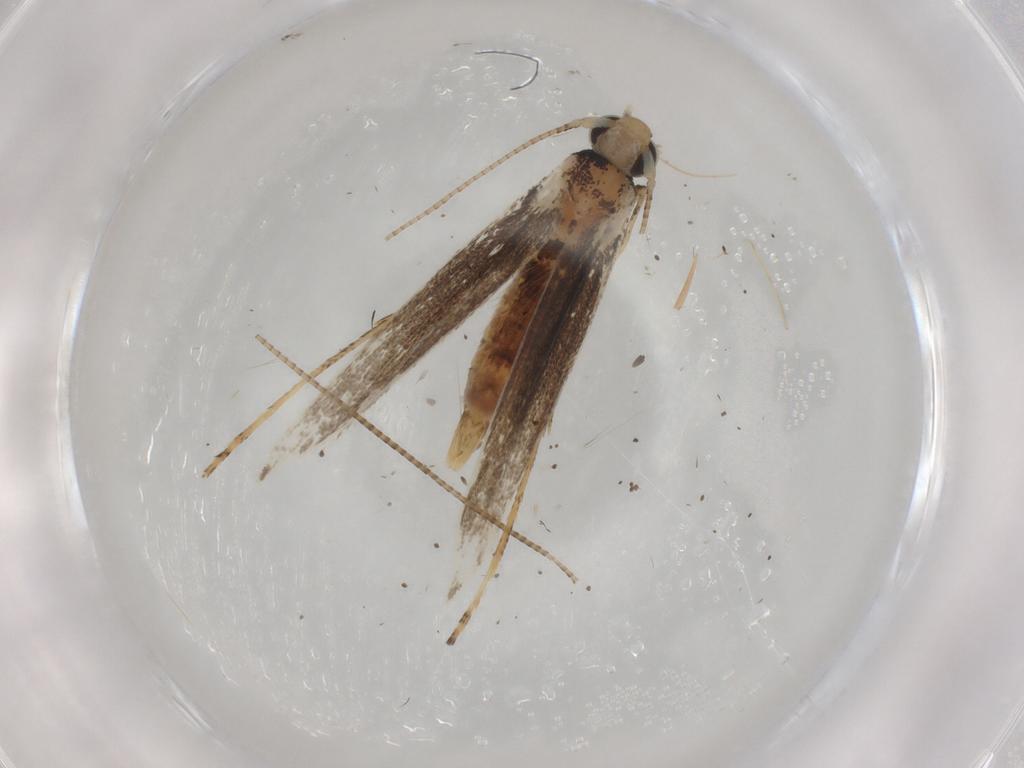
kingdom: Animalia
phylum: Arthropoda
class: Insecta
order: Lepidoptera
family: Gracillariidae
